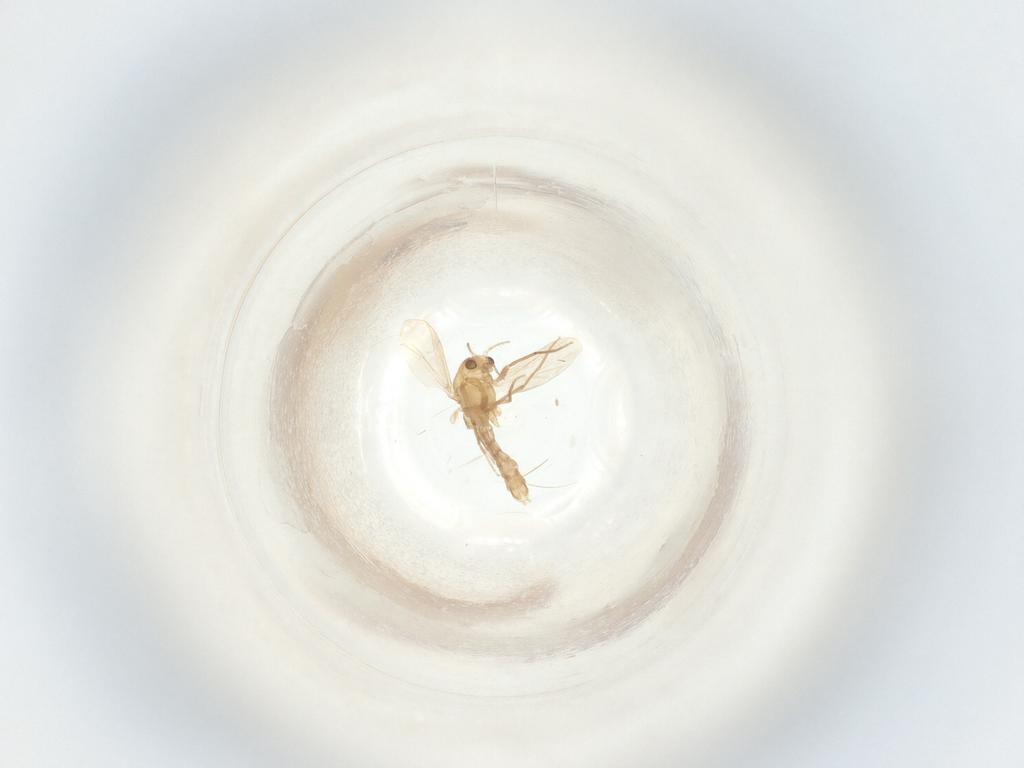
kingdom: Animalia
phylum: Arthropoda
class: Insecta
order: Diptera
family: Chironomidae
